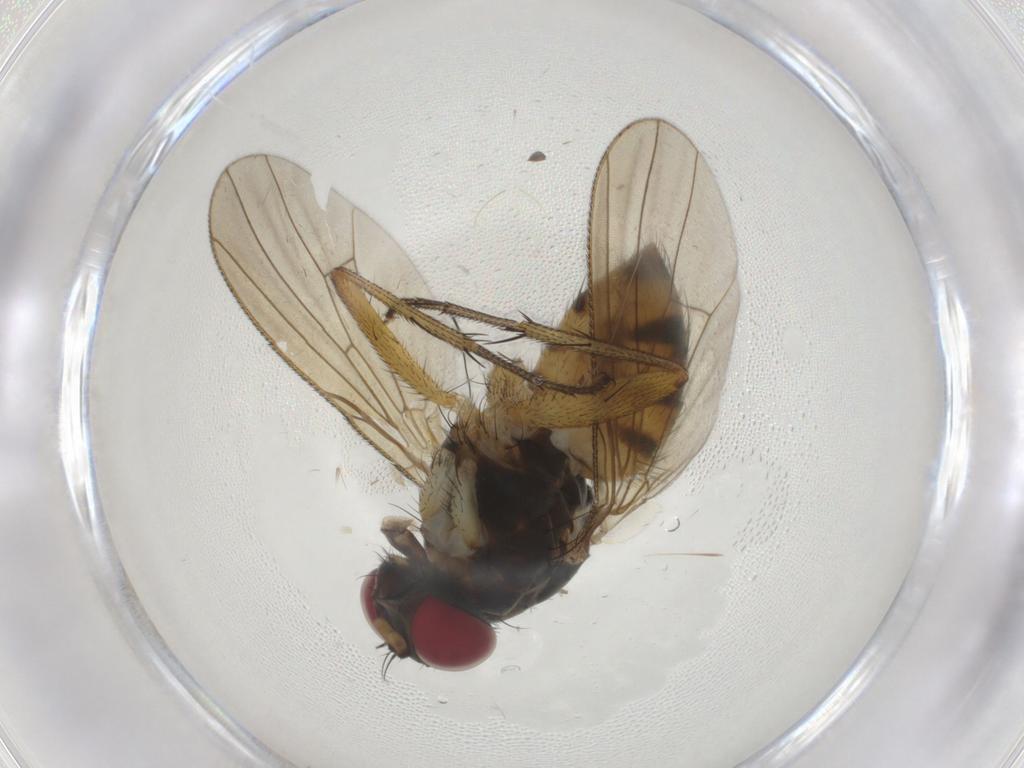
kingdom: Animalia
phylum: Arthropoda
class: Insecta
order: Diptera
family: Muscidae
